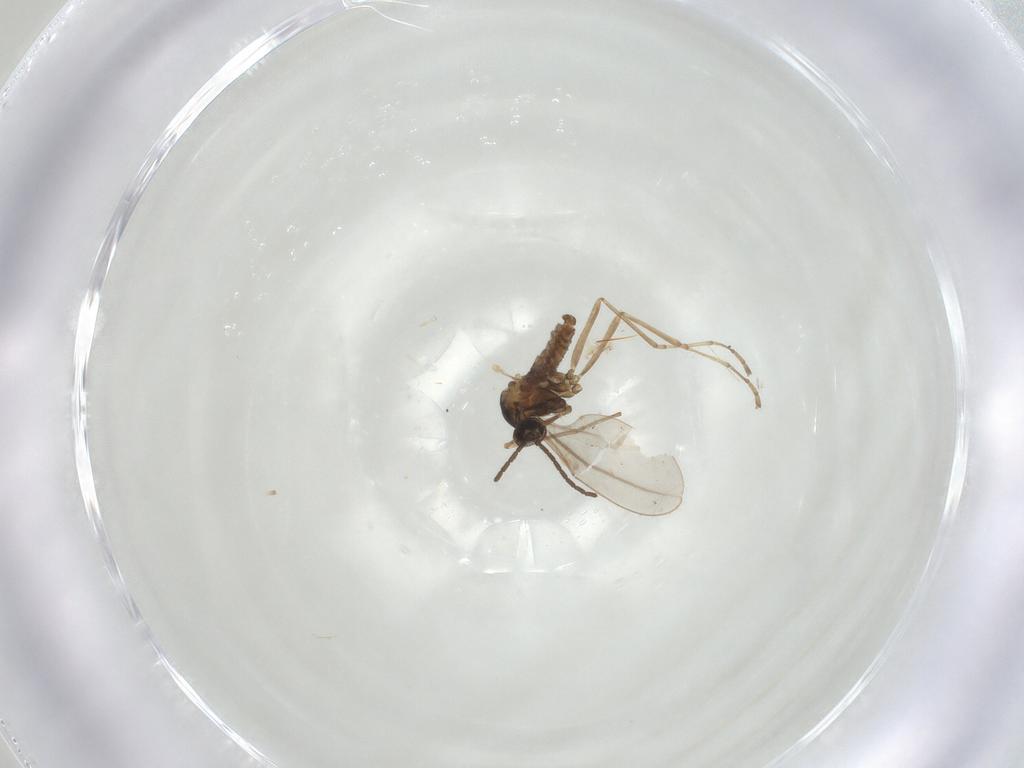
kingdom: Animalia
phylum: Arthropoda
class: Insecta
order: Diptera
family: Cecidomyiidae
